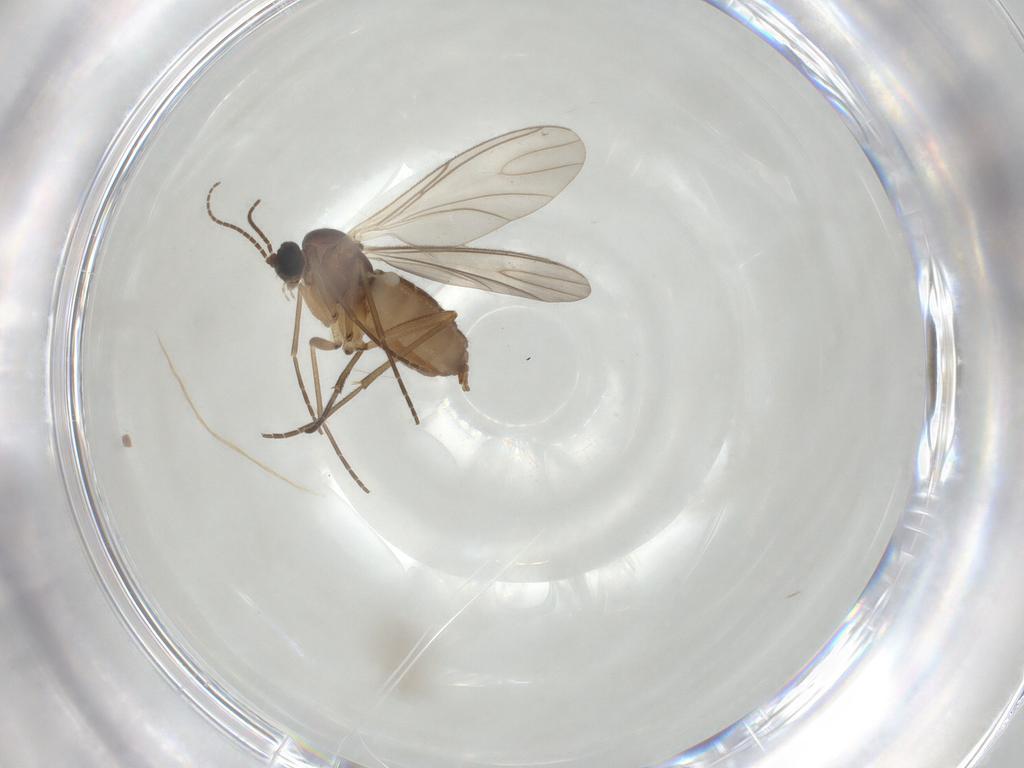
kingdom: Animalia
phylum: Arthropoda
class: Insecta
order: Diptera
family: Sciaridae
